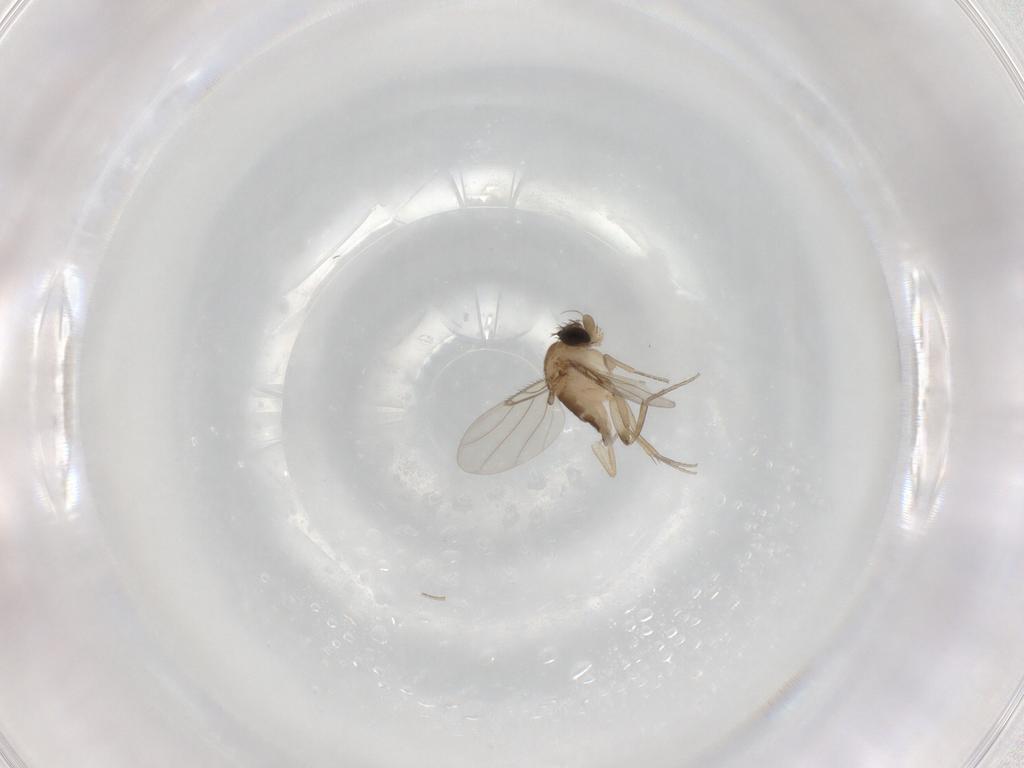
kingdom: Animalia
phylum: Arthropoda
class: Insecta
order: Diptera
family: Phoridae
